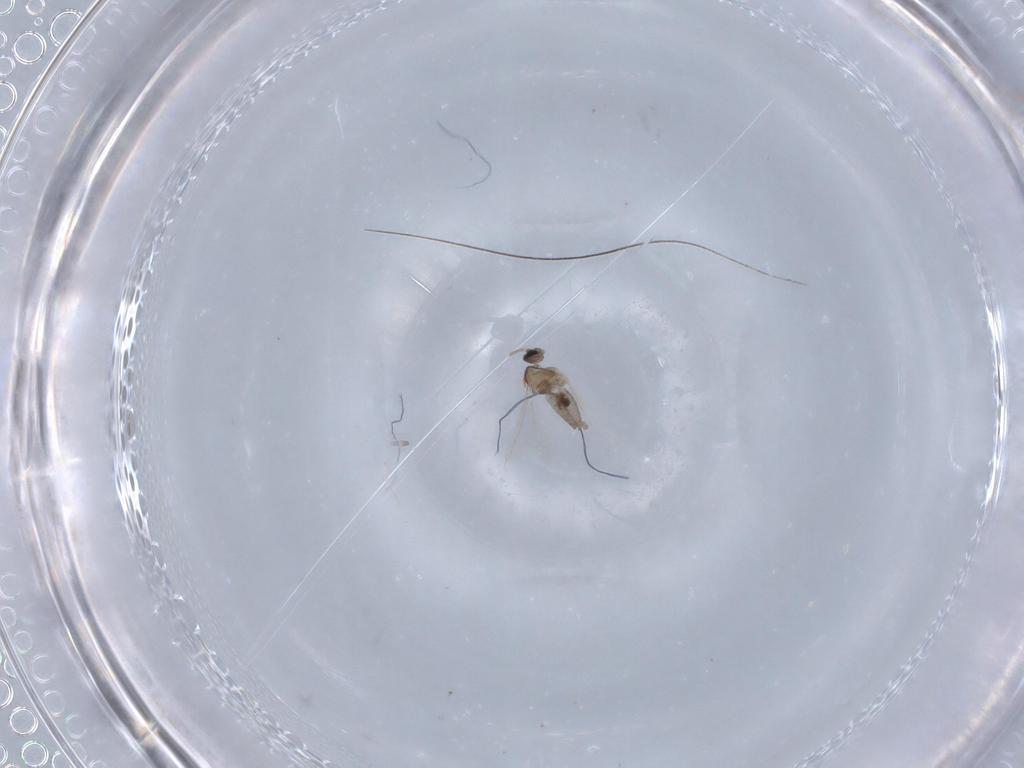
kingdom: Animalia
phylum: Arthropoda
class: Insecta
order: Diptera
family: Cecidomyiidae
